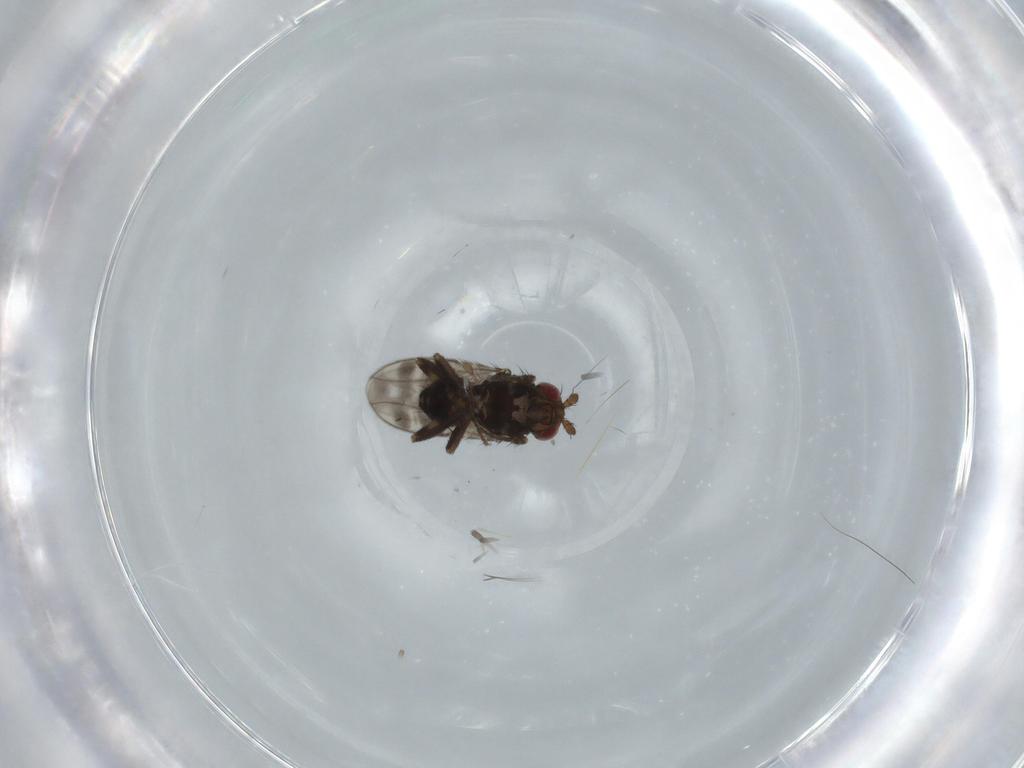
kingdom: Animalia
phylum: Arthropoda
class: Insecta
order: Diptera
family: Sphaeroceridae
